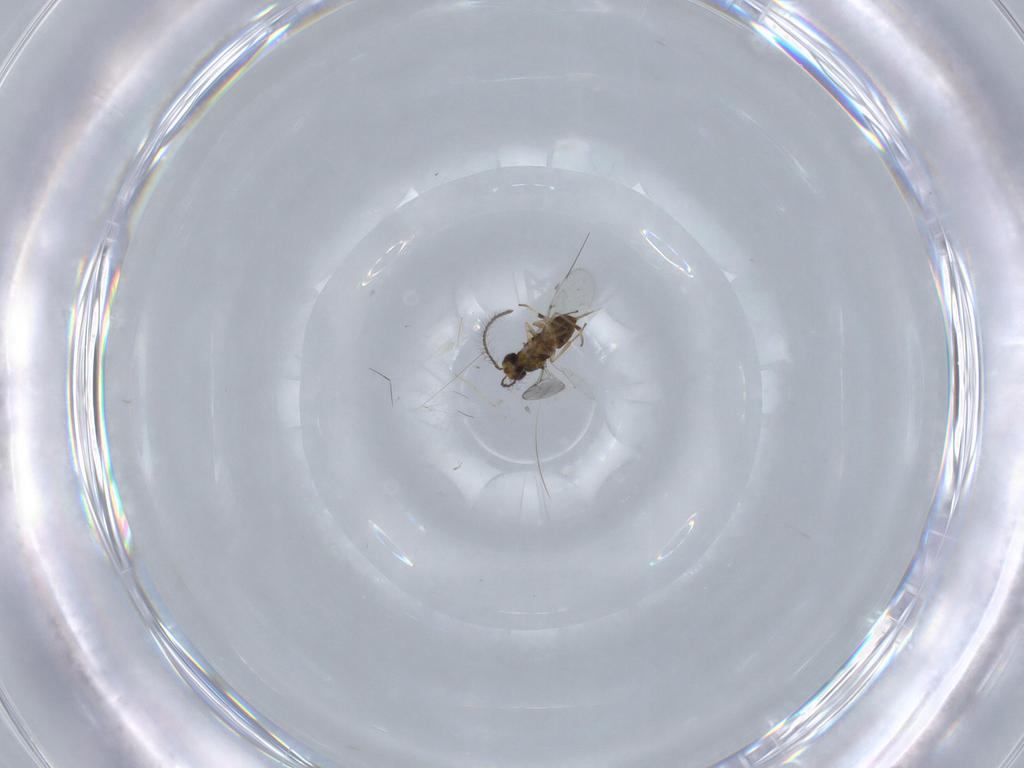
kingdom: Animalia
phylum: Arthropoda
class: Insecta
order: Hymenoptera
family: Encyrtidae
